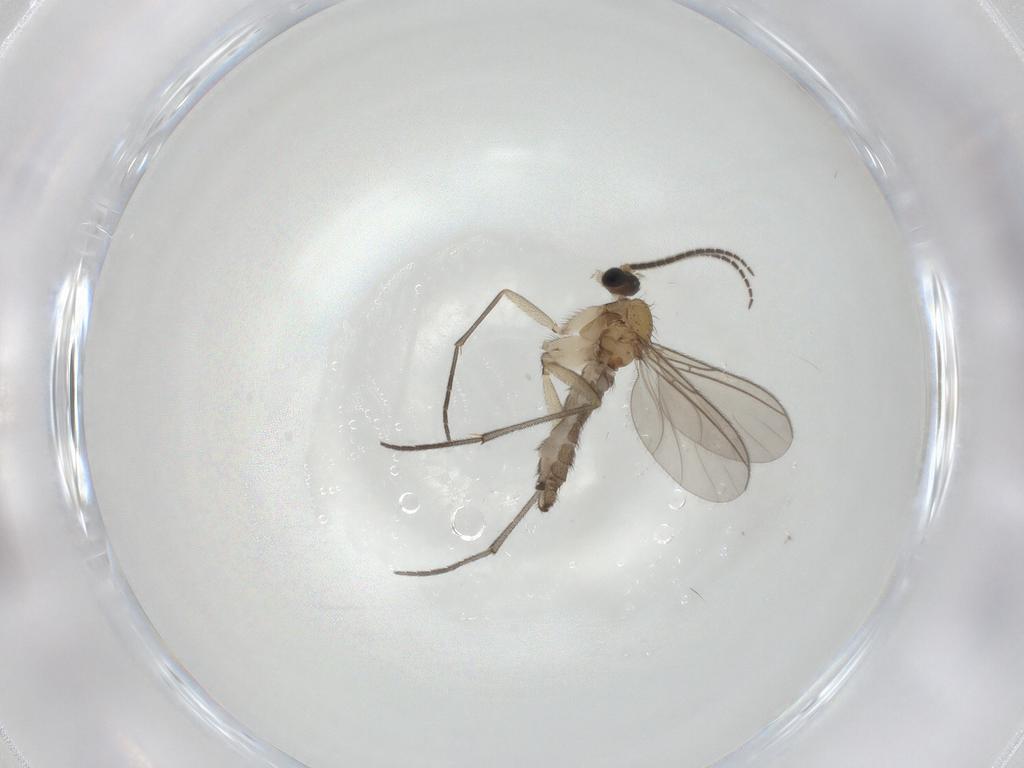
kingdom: Animalia
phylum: Arthropoda
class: Insecta
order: Diptera
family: Sciaridae
